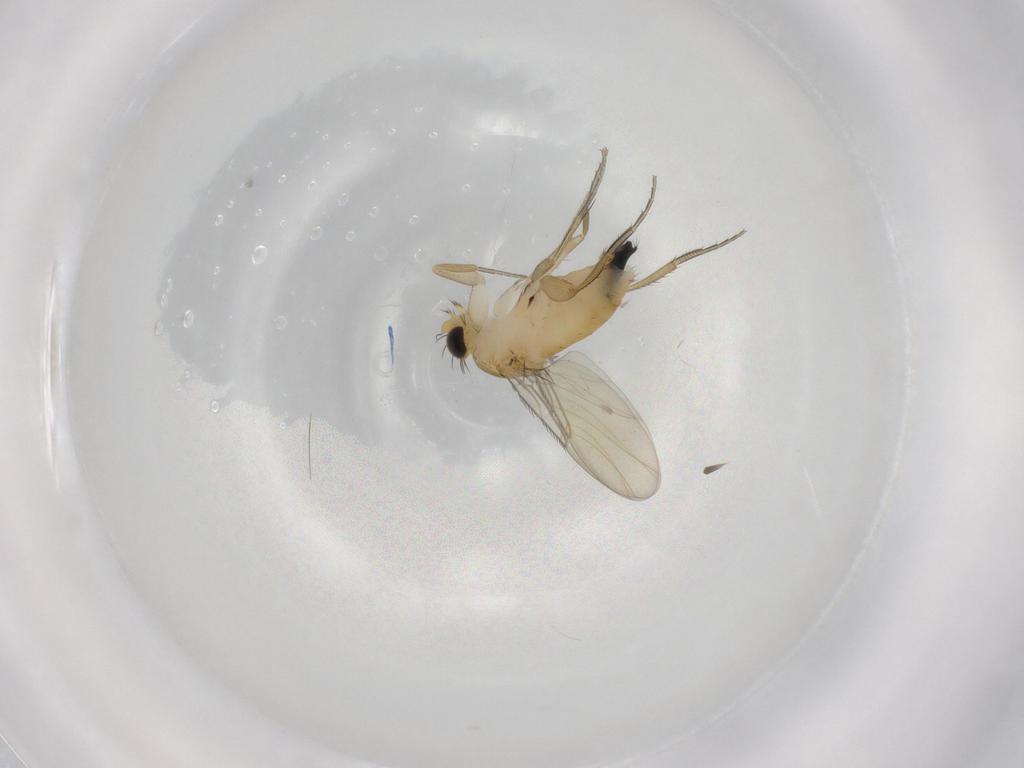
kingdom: Animalia
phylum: Arthropoda
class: Insecta
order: Diptera
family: Phoridae
